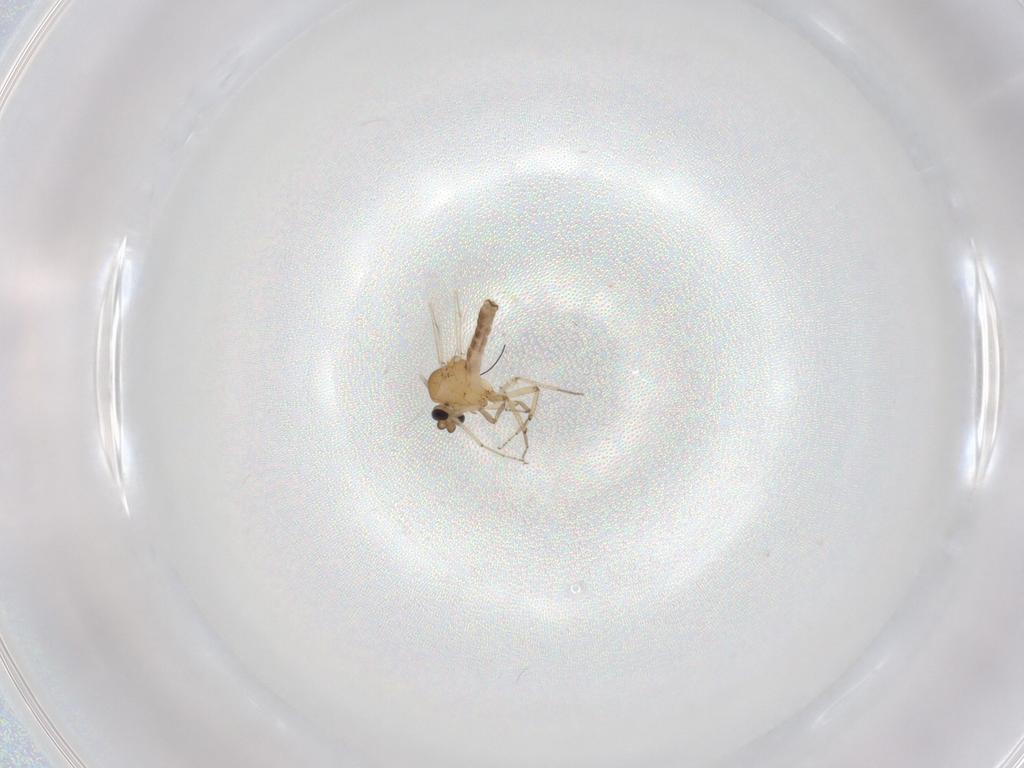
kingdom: Animalia
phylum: Arthropoda
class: Insecta
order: Diptera
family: Ceratopogonidae
